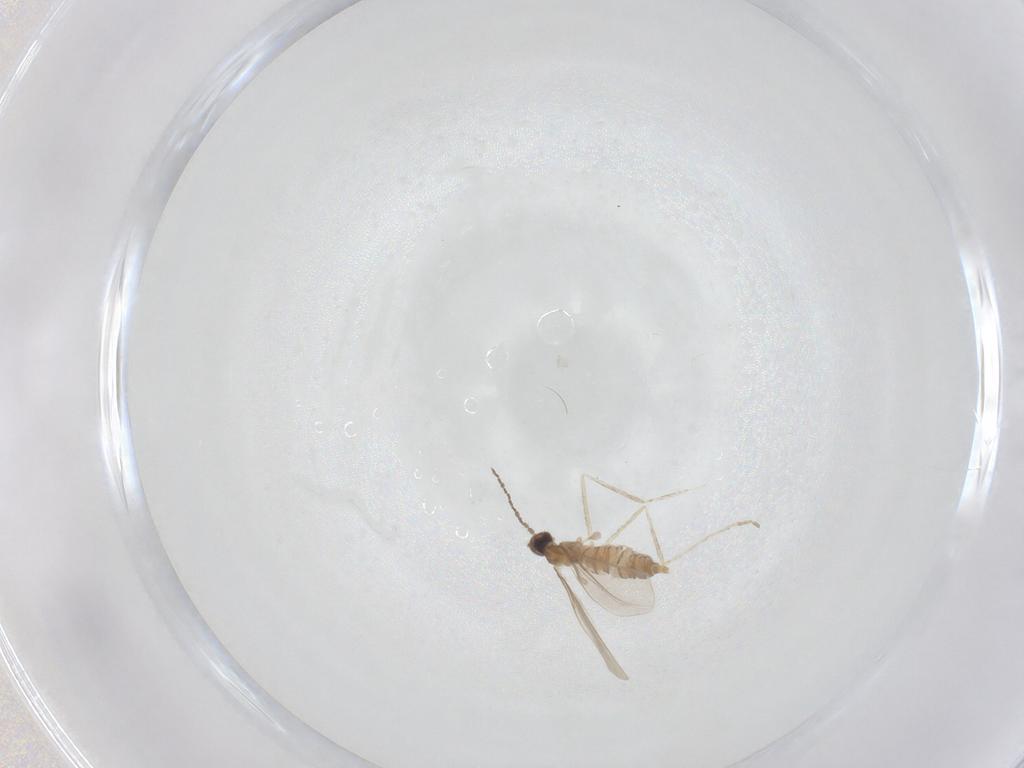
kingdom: Animalia
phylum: Arthropoda
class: Insecta
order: Diptera
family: Cecidomyiidae
